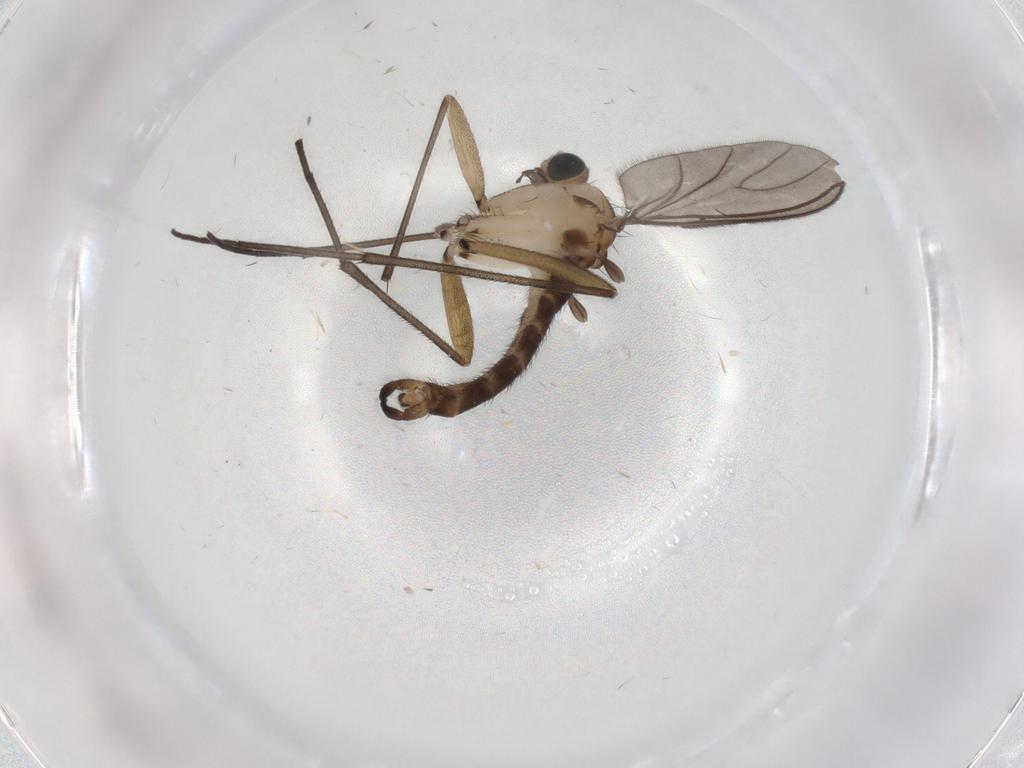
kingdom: Animalia
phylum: Arthropoda
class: Insecta
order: Diptera
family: Sciaridae
